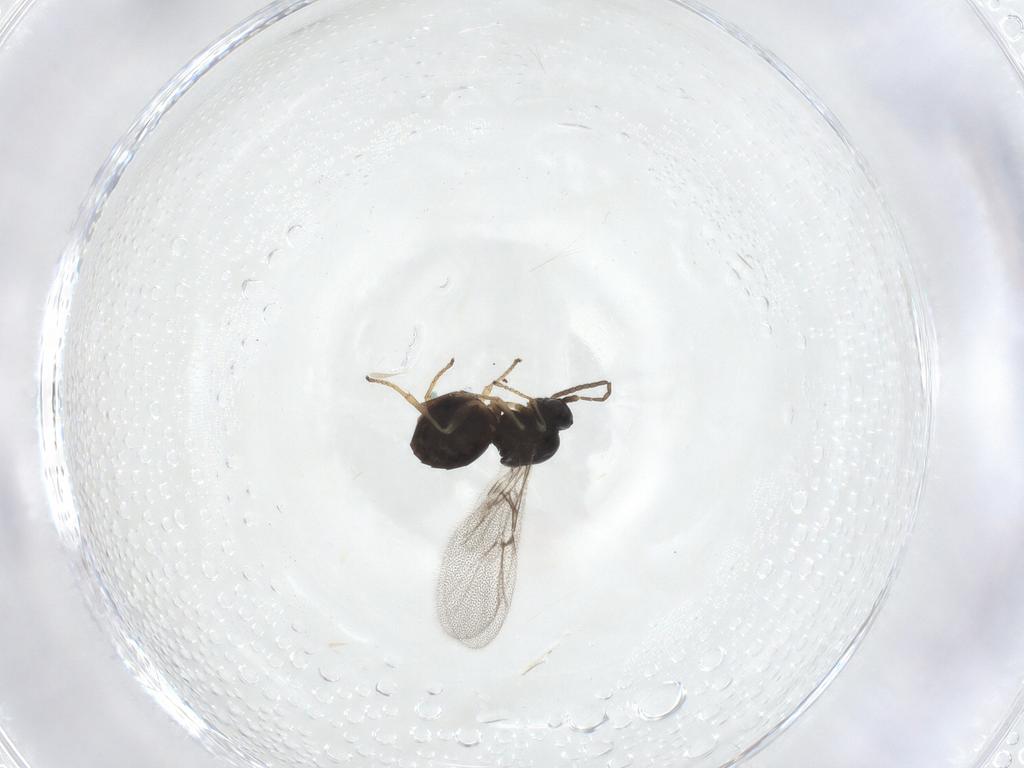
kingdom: Animalia
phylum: Arthropoda
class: Insecta
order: Hymenoptera
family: Cynipidae
